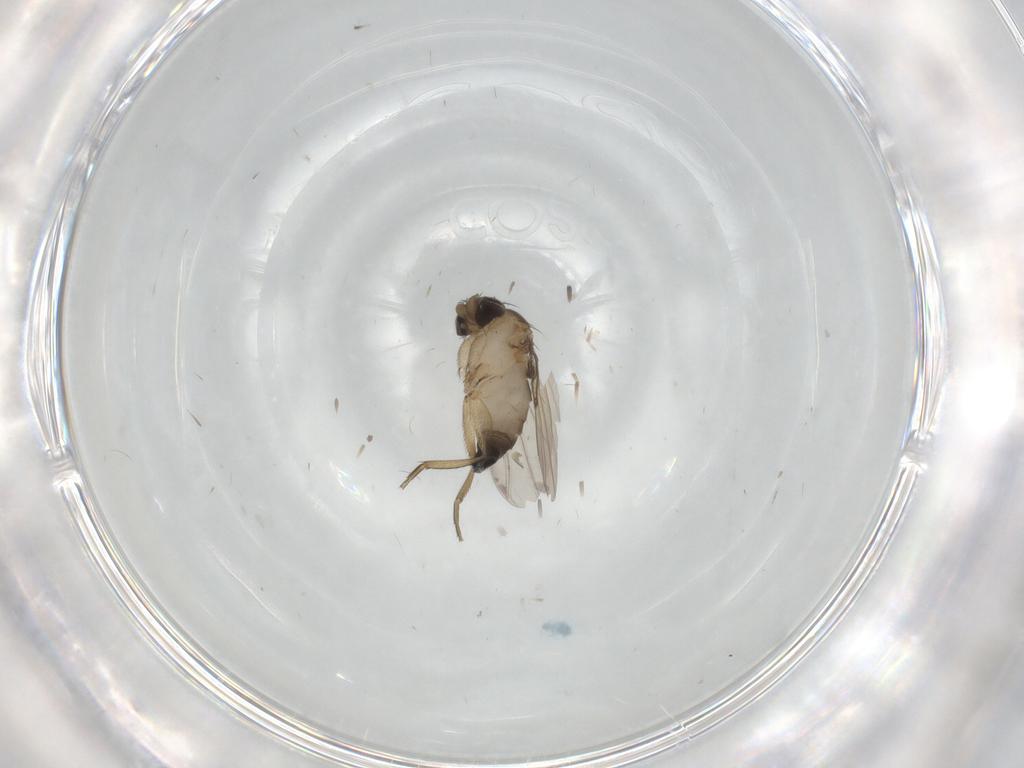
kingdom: Animalia
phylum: Arthropoda
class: Insecta
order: Diptera
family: Phoridae
